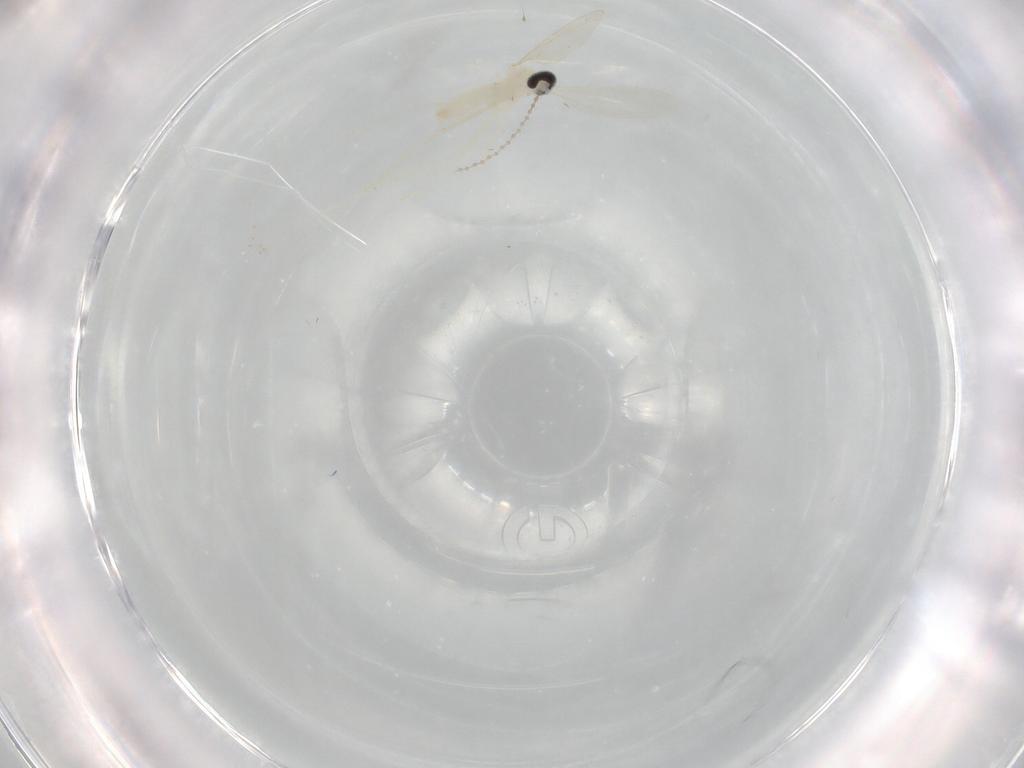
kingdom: Animalia
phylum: Arthropoda
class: Insecta
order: Diptera
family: Cecidomyiidae
